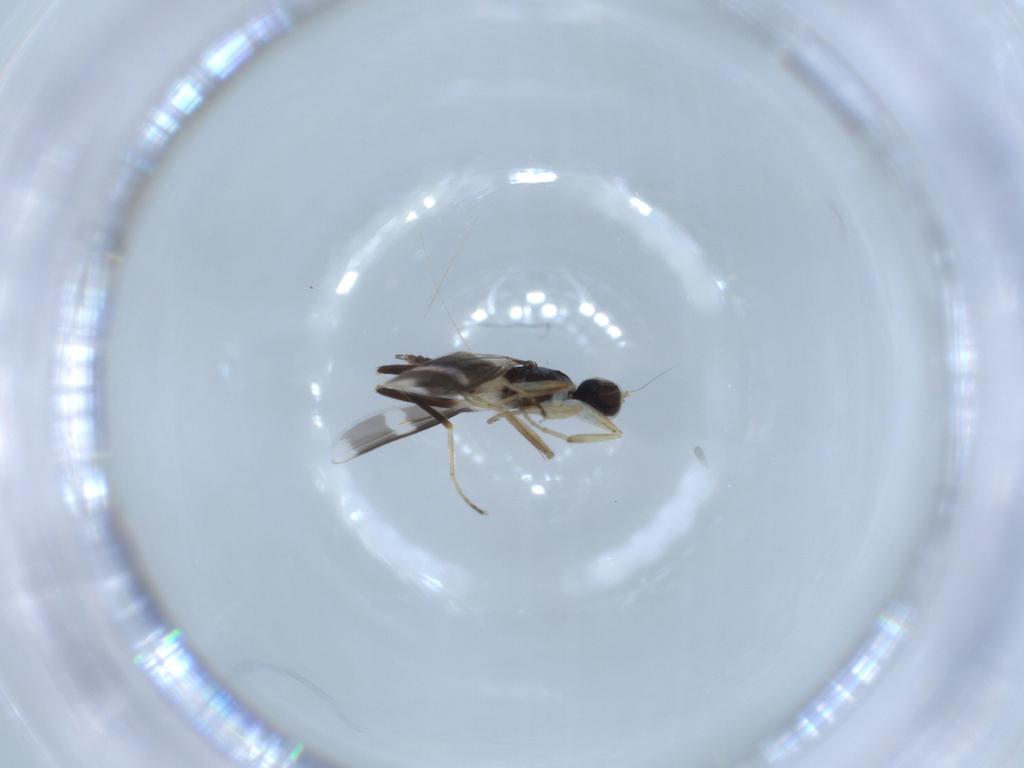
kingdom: Animalia
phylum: Arthropoda
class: Insecta
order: Diptera
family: Hybotidae
